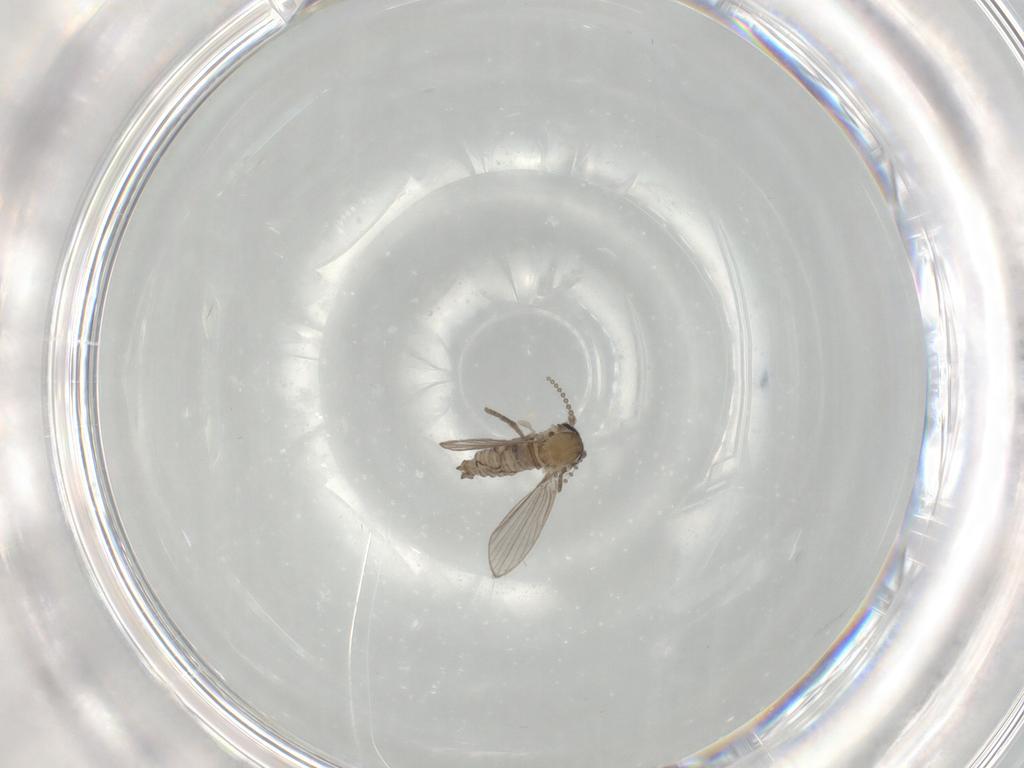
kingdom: Animalia
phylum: Arthropoda
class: Insecta
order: Diptera
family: Psychodidae
